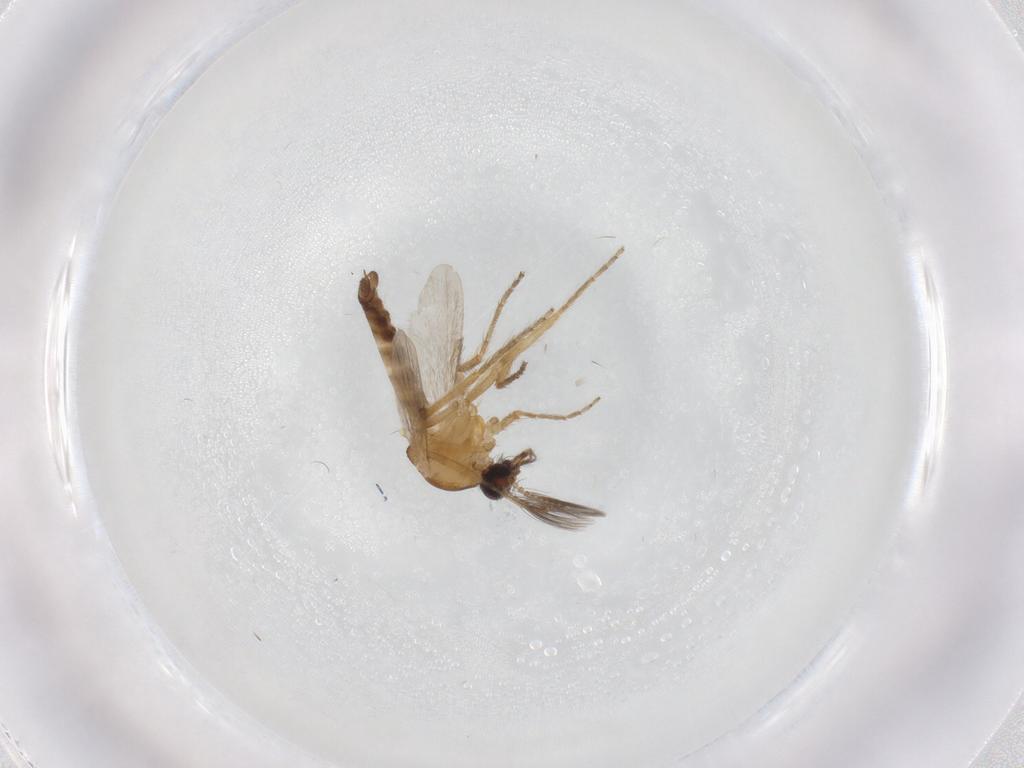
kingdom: Animalia
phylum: Arthropoda
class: Insecta
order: Diptera
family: Ceratopogonidae
